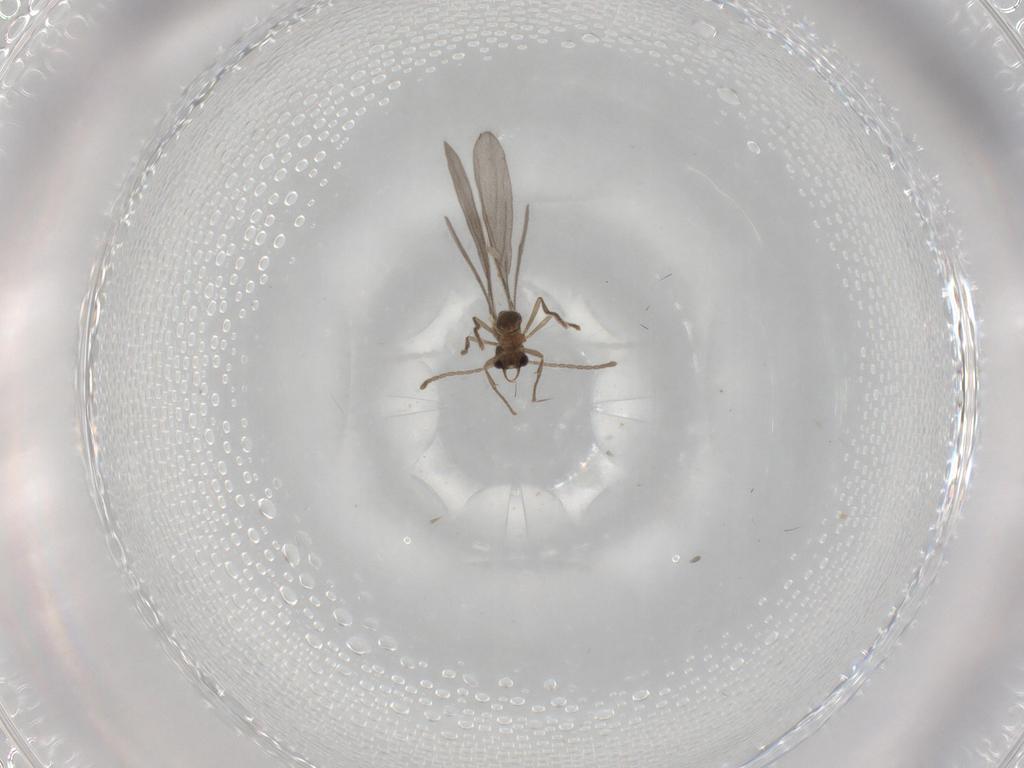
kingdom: Animalia
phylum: Arthropoda
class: Insecta
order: Hymenoptera
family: Formicidae
